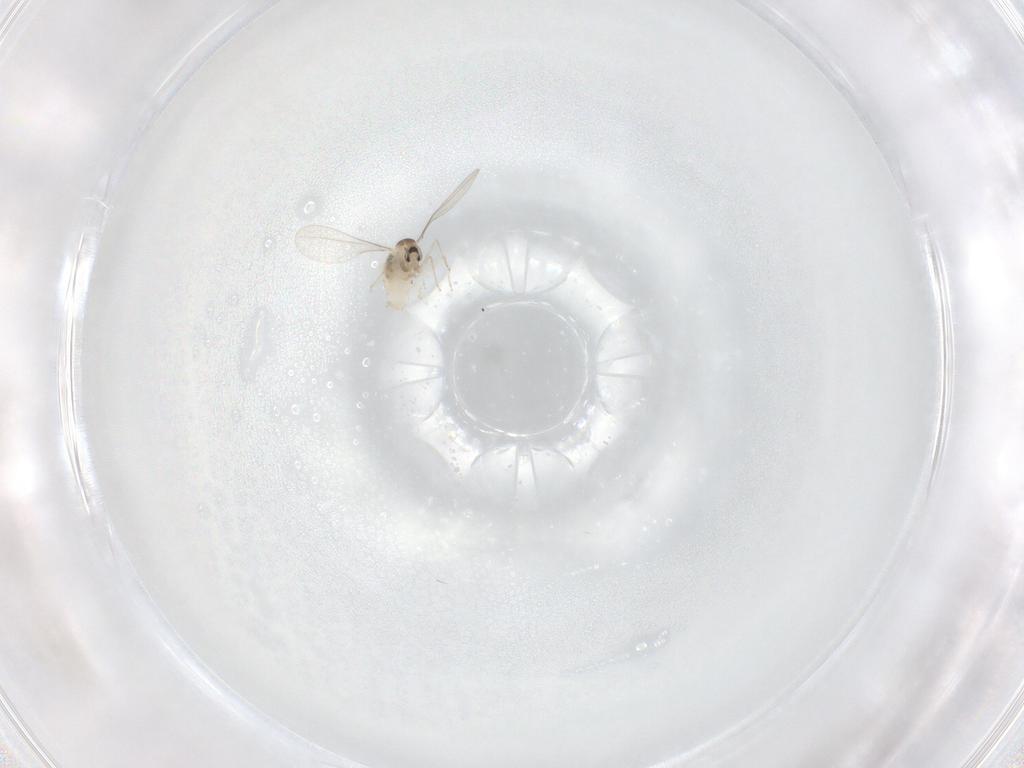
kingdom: Animalia
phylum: Arthropoda
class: Insecta
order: Diptera
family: Cecidomyiidae
